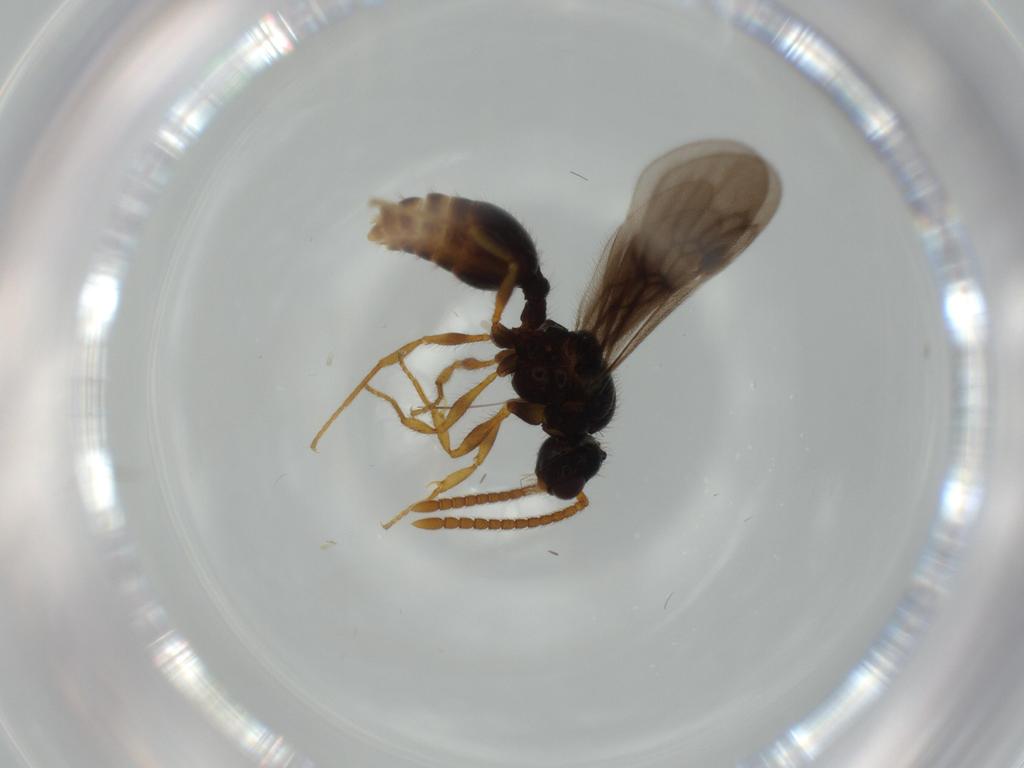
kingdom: Animalia
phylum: Arthropoda
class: Insecta
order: Hymenoptera
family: Formicidae
